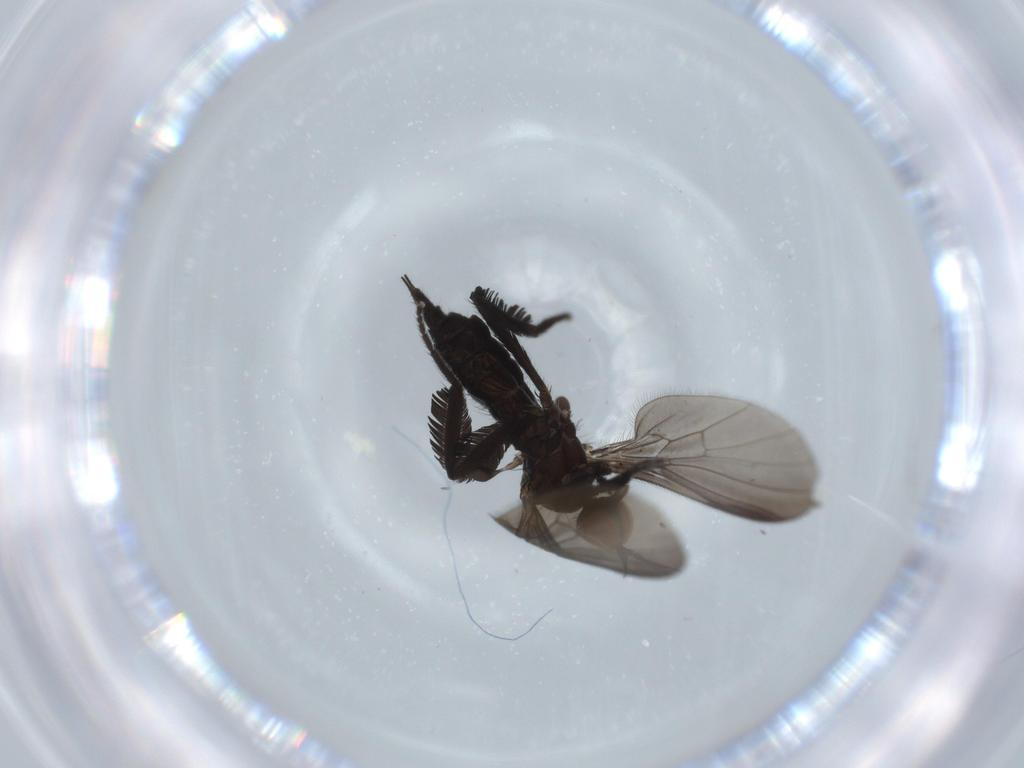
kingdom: Animalia
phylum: Arthropoda
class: Insecta
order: Diptera
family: Empididae
